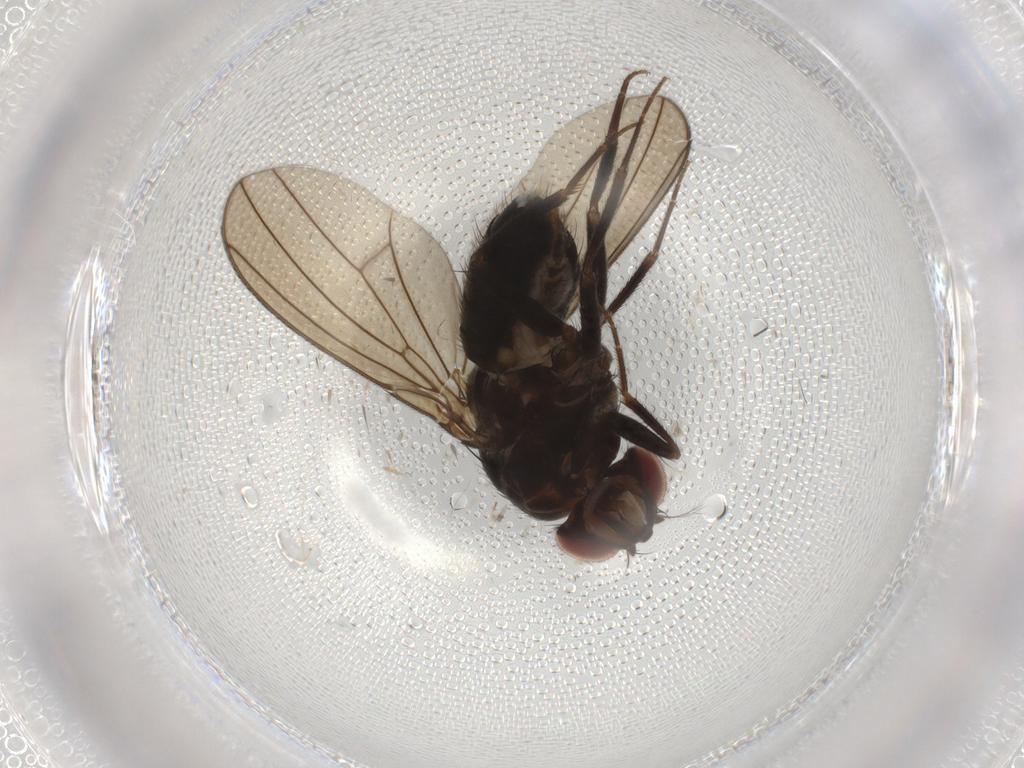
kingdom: Animalia
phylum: Arthropoda
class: Insecta
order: Diptera
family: Drosophilidae
